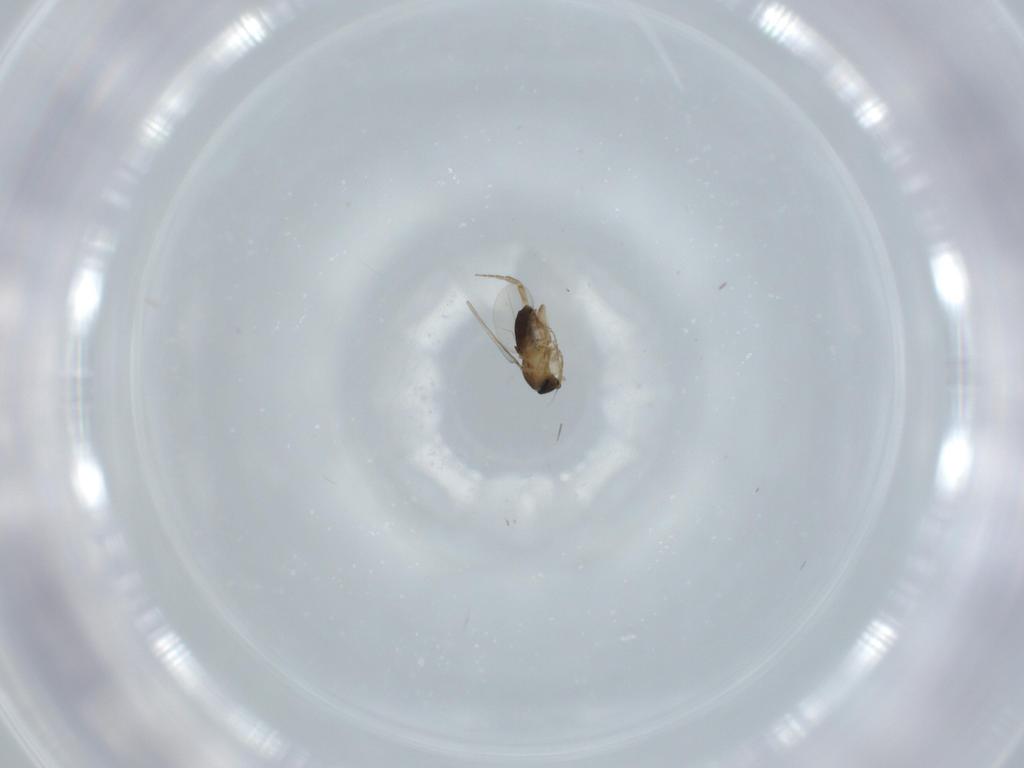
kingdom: Animalia
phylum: Arthropoda
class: Insecta
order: Diptera
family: Phoridae
